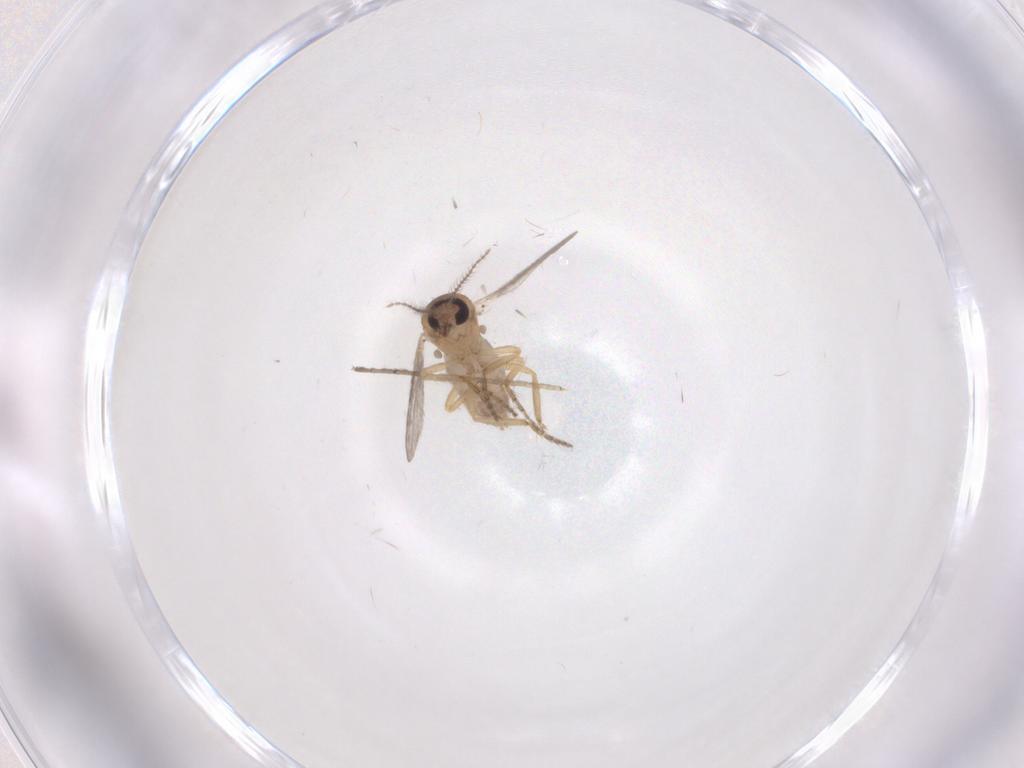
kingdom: Animalia
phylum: Arthropoda
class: Insecta
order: Diptera
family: Ceratopogonidae
